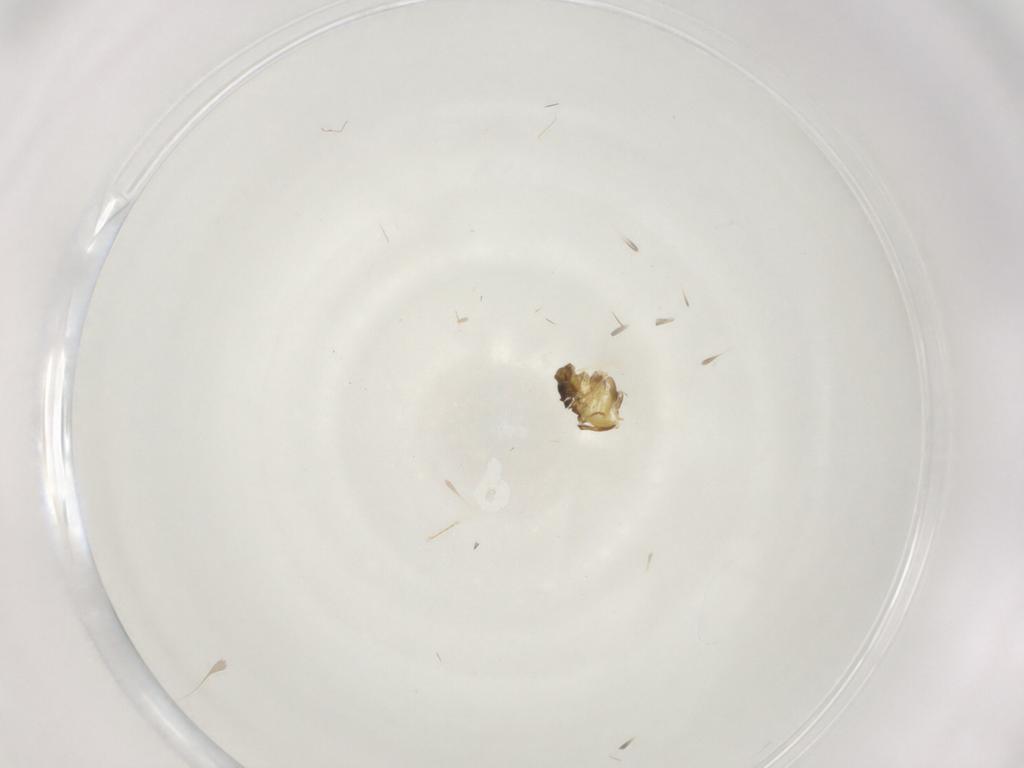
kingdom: Animalia
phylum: Arthropoda
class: Insecta
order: Diptera
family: Chironomidae
